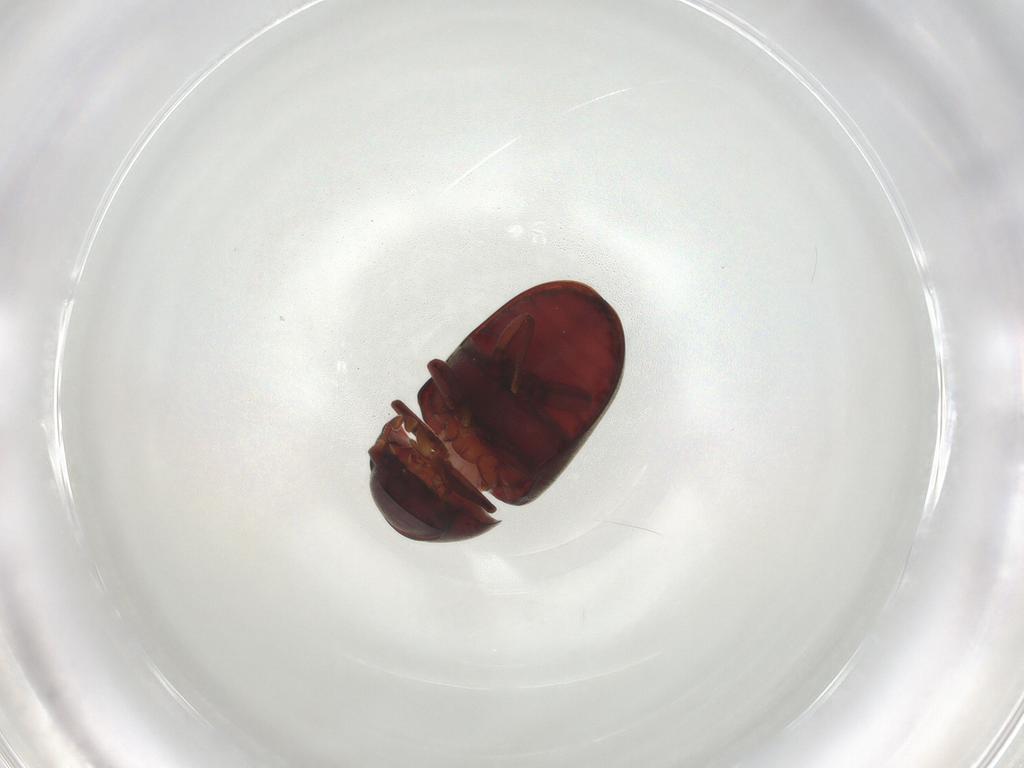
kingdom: Animalia
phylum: Arthropoda
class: Insecta
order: Coleoptera
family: Ptinidae
